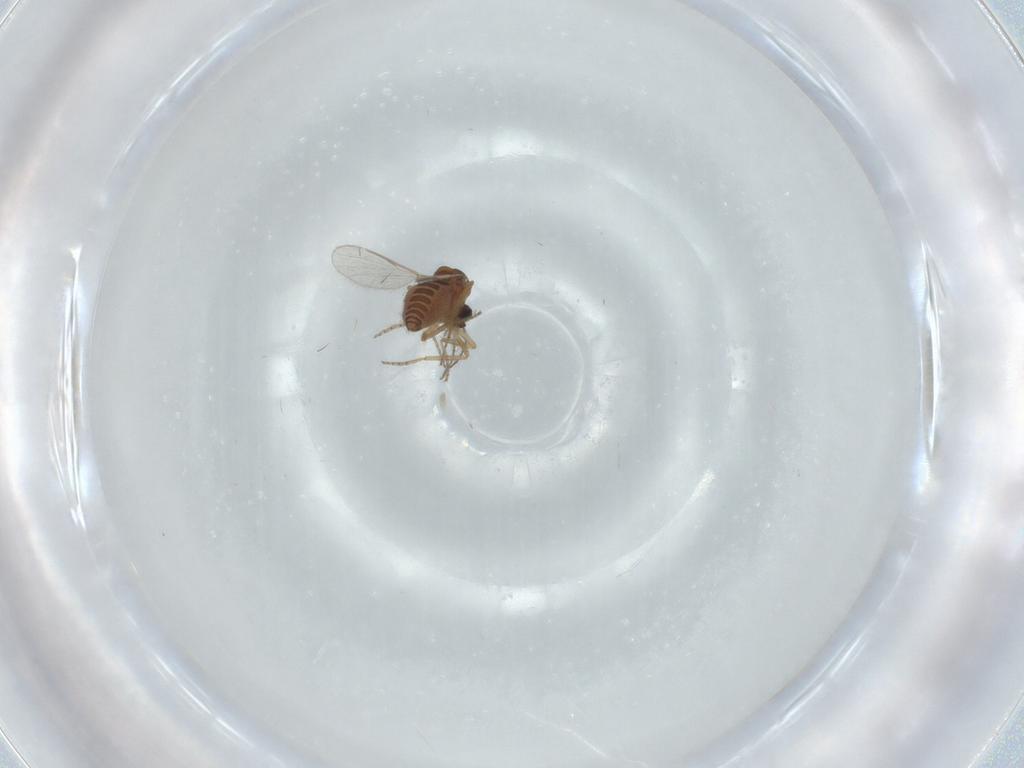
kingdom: Animalia
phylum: Arthropoda
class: Insecta
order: Diptera
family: Ceratopogonidae
